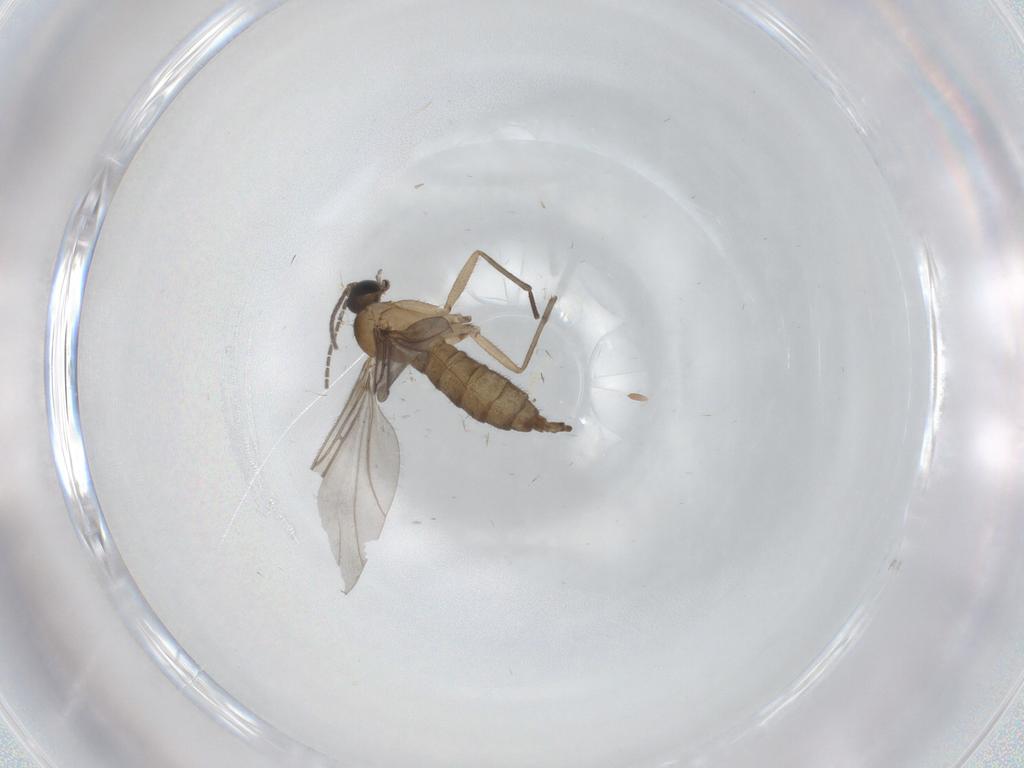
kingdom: Animalia
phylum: Arthropoda
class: Insecta
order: Diptera
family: Sciaridae
